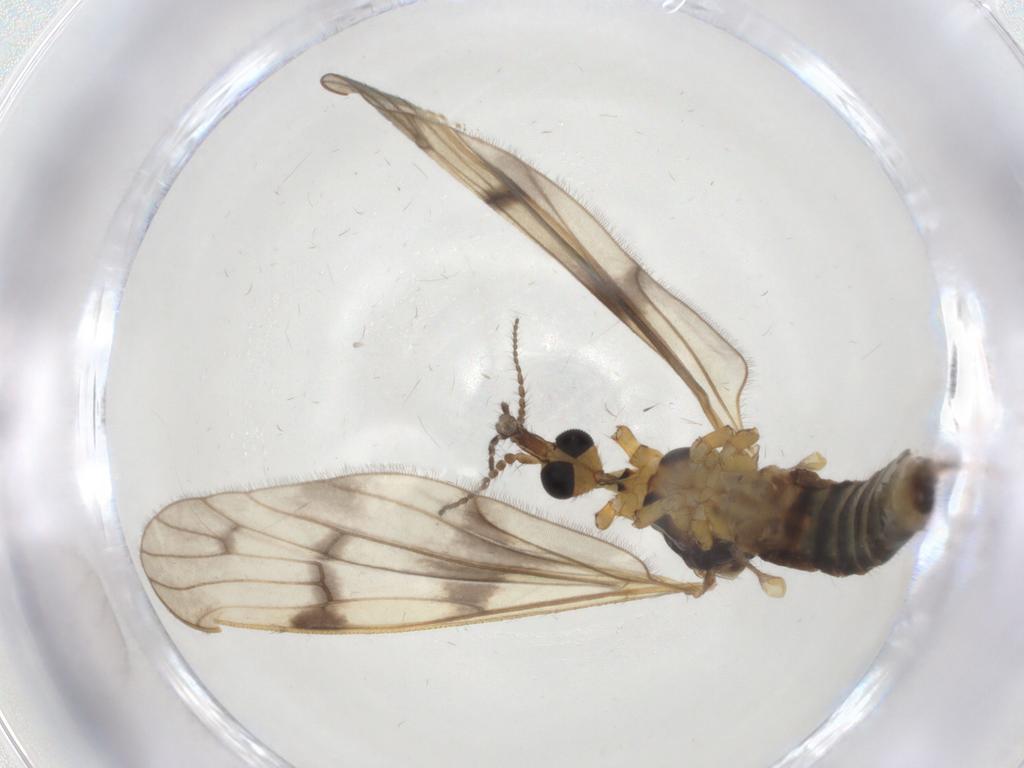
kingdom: Animalia
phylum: Arthropoda
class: Insecta
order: Diptera
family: Limoniidae
